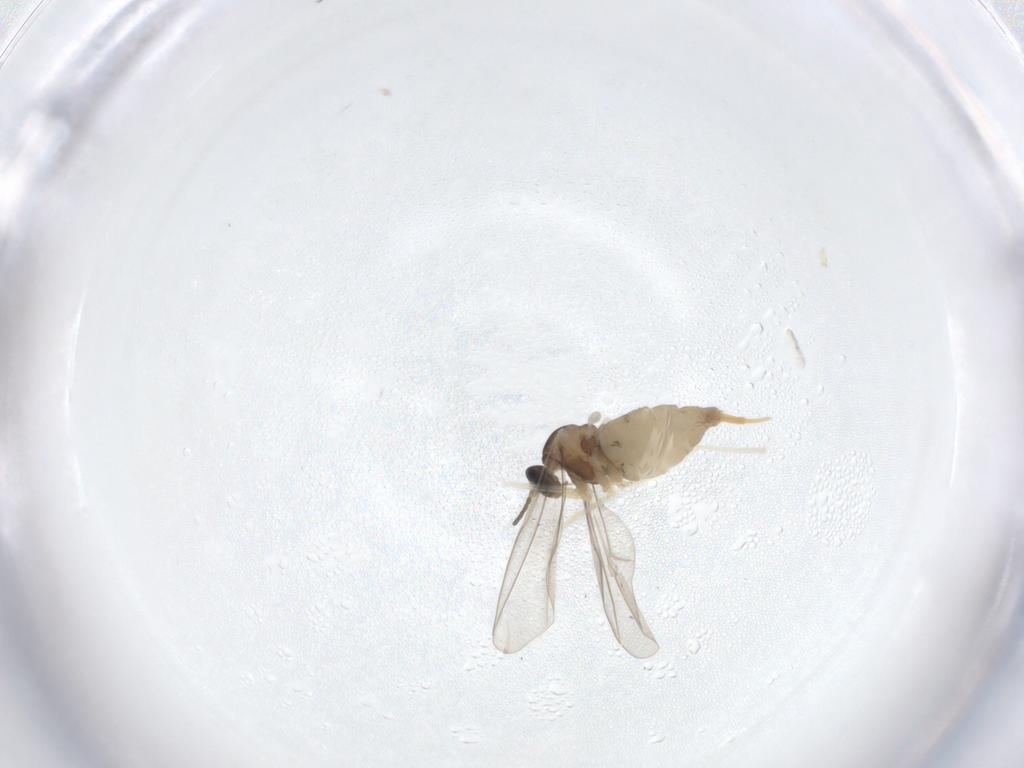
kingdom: Animalia
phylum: Arthropoda
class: Insecta
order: Diptera
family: Cecidomyiidae
